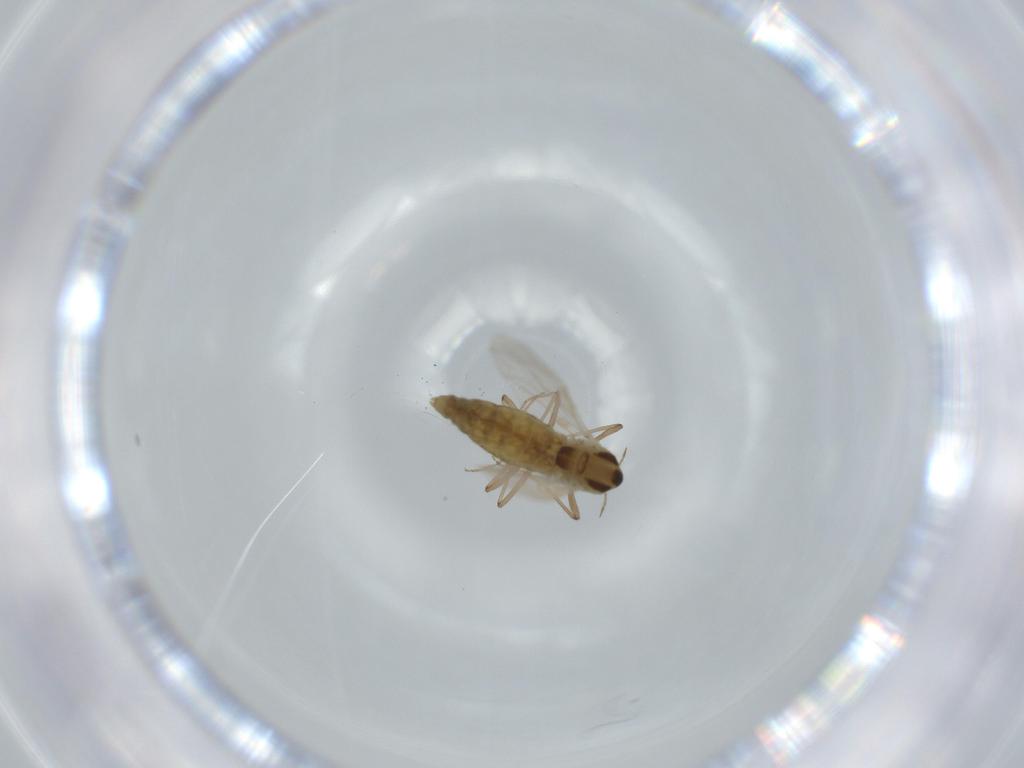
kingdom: Animalia
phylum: Arthropoda
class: Insecta
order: Diptera
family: Chironomidae
